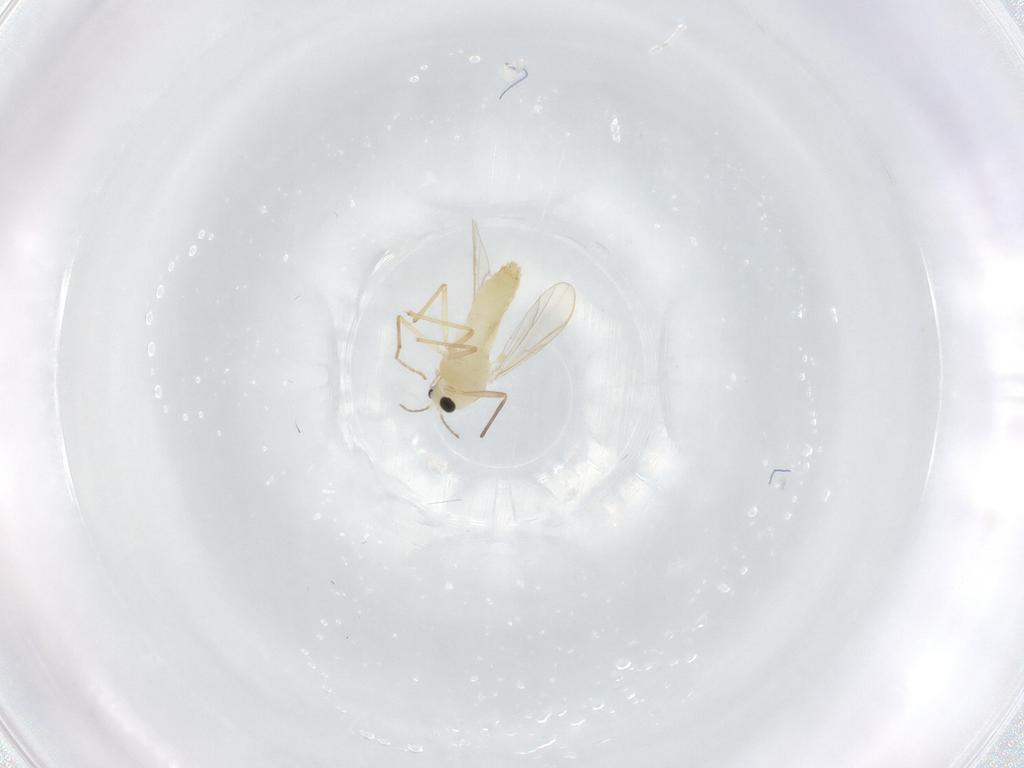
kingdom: Animalia
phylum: Arthropoda
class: Insecta
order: Diptera
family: Chironomidae
